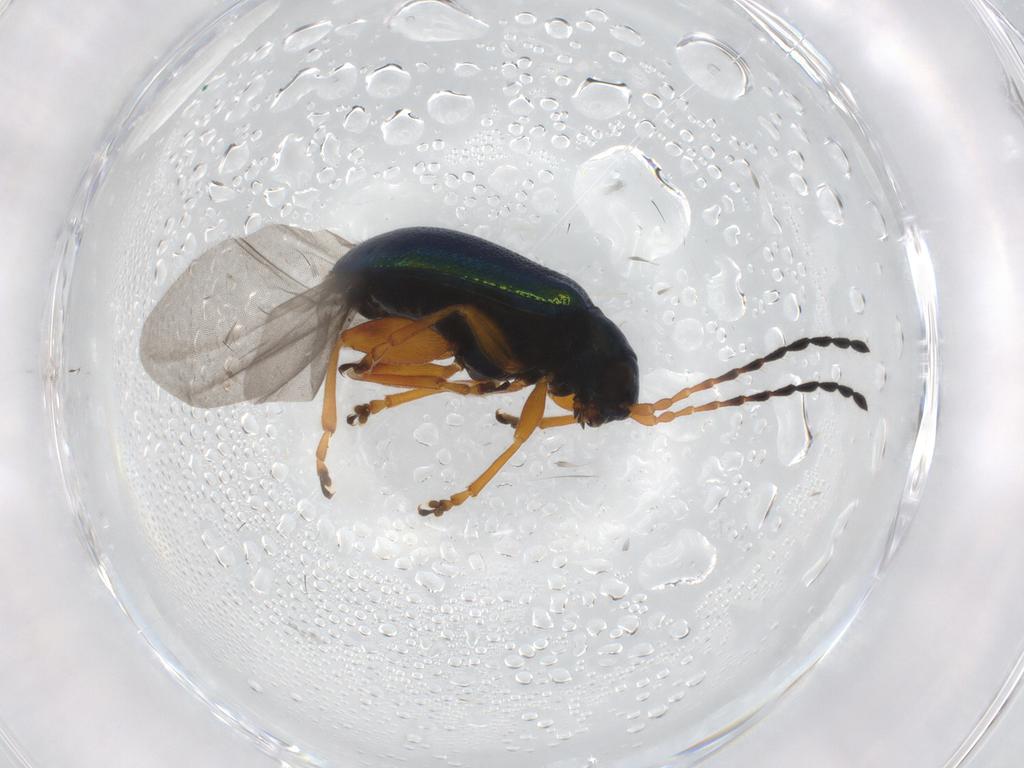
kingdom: Animalia
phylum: Arthropoda
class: Insecta
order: Coleoptera
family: Chrysomelidae
